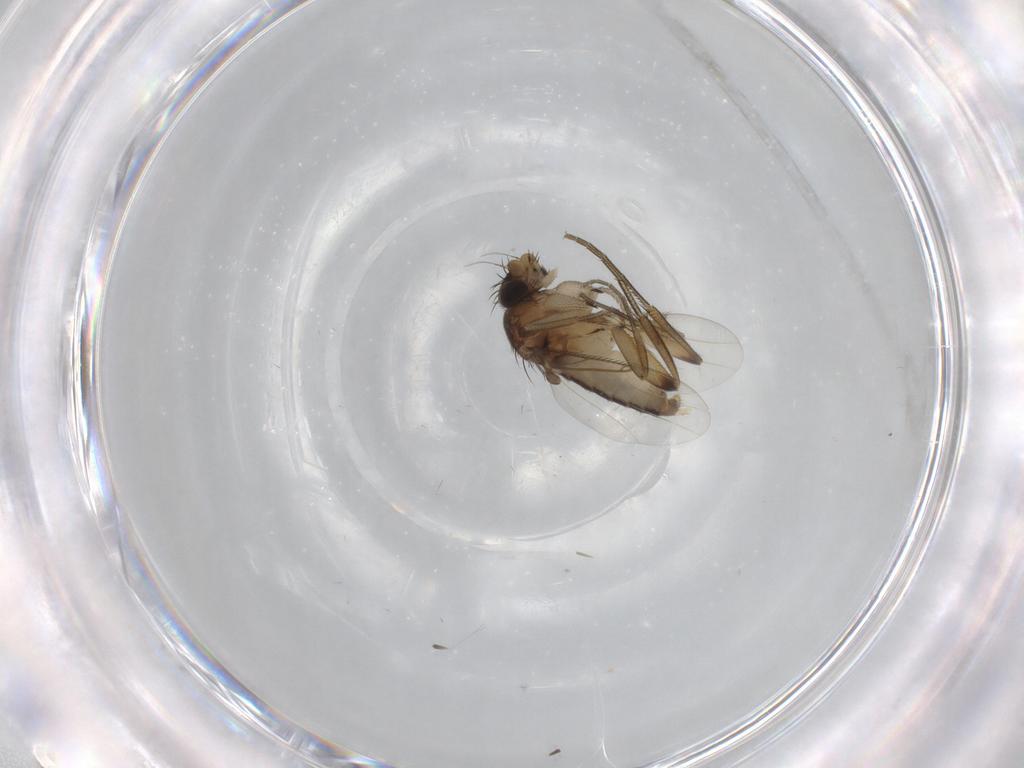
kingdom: Animalia
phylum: Arthropoda
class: Insecta
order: Diptera
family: Phoridae
